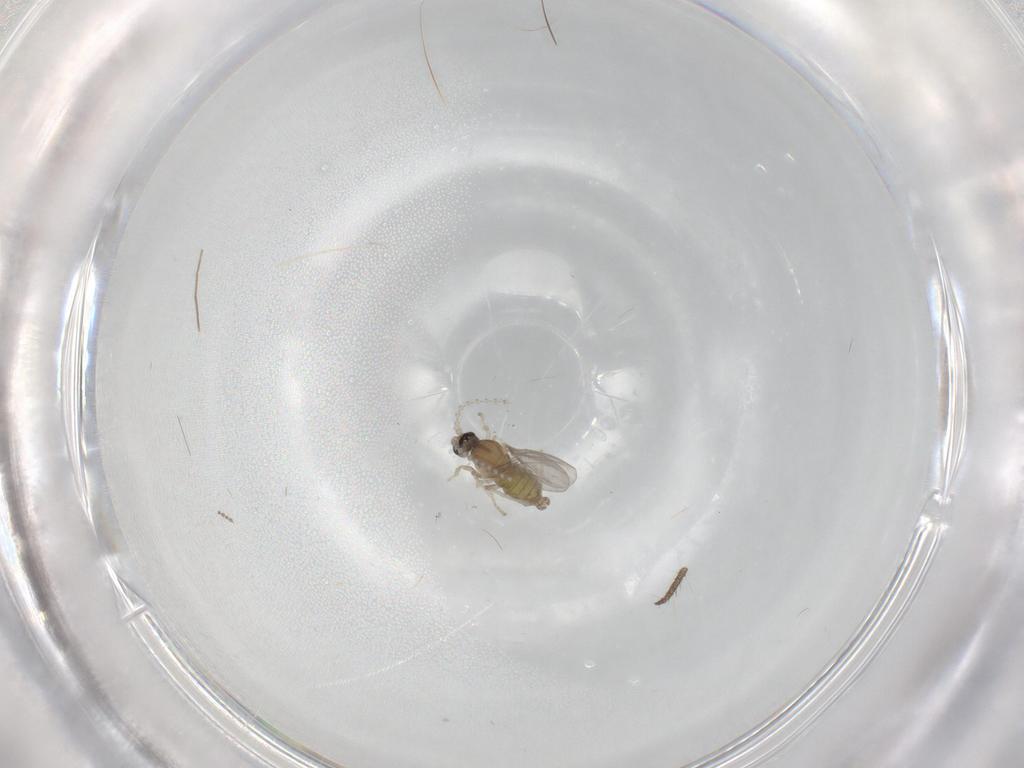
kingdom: Animalia
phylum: Arthropoda
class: Insecta
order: Diptera
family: Cecidomyiidae
